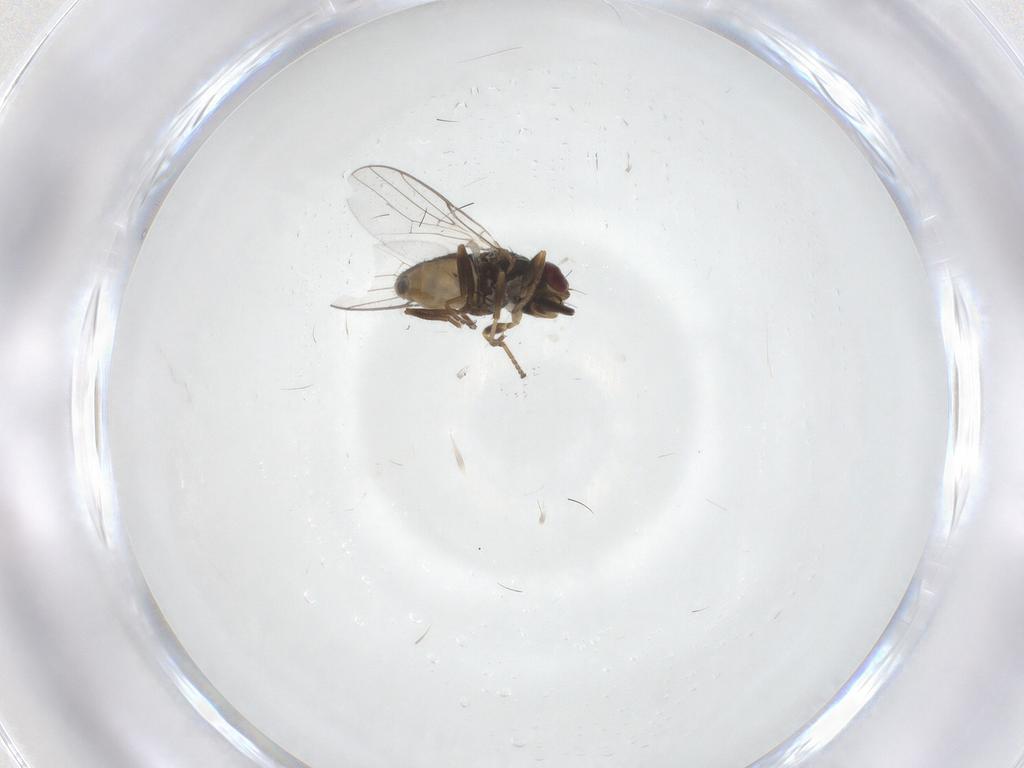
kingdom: Animalia
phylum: Arthropoda
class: Insecta
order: Diptera
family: Chloropidae
